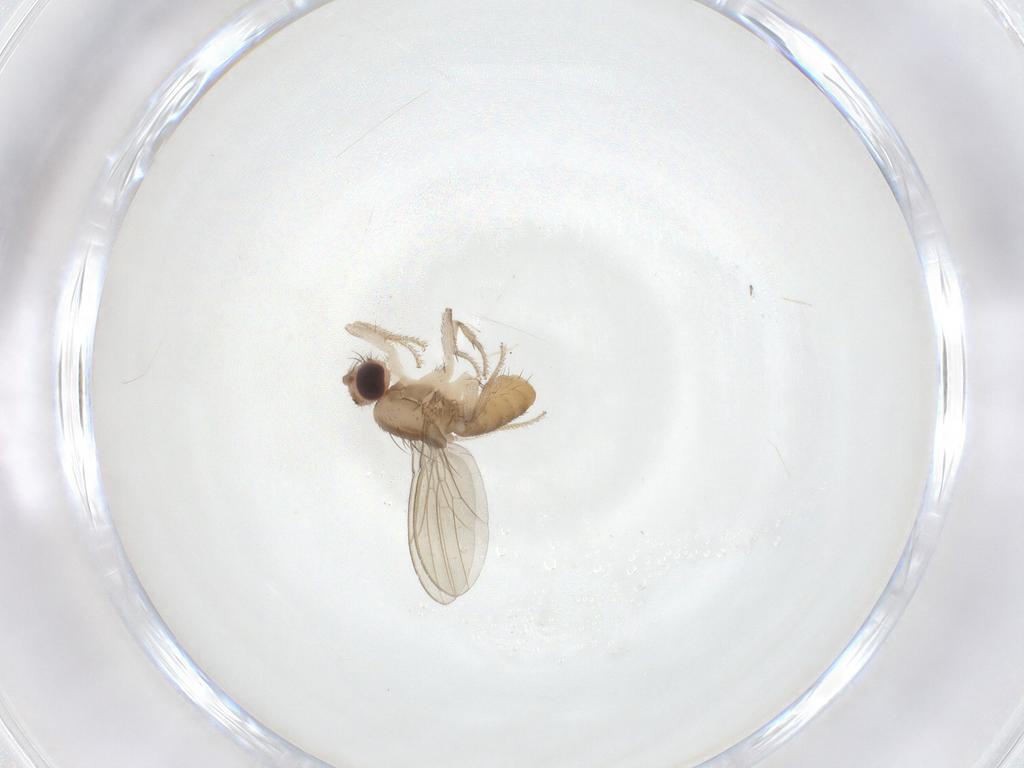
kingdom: Animalia
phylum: Arthropoda
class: Insecta
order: Diptera
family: Drosophilidae
